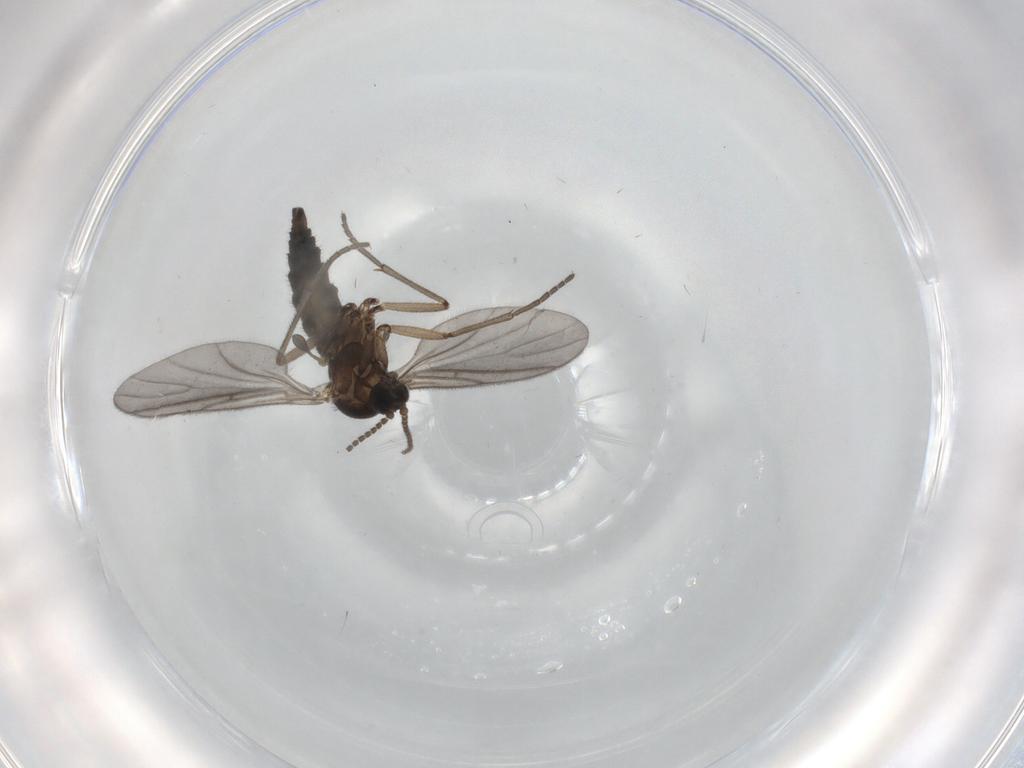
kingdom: Animalia
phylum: Arthropoda
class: Insecta
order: Diptera
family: Sciaridae
